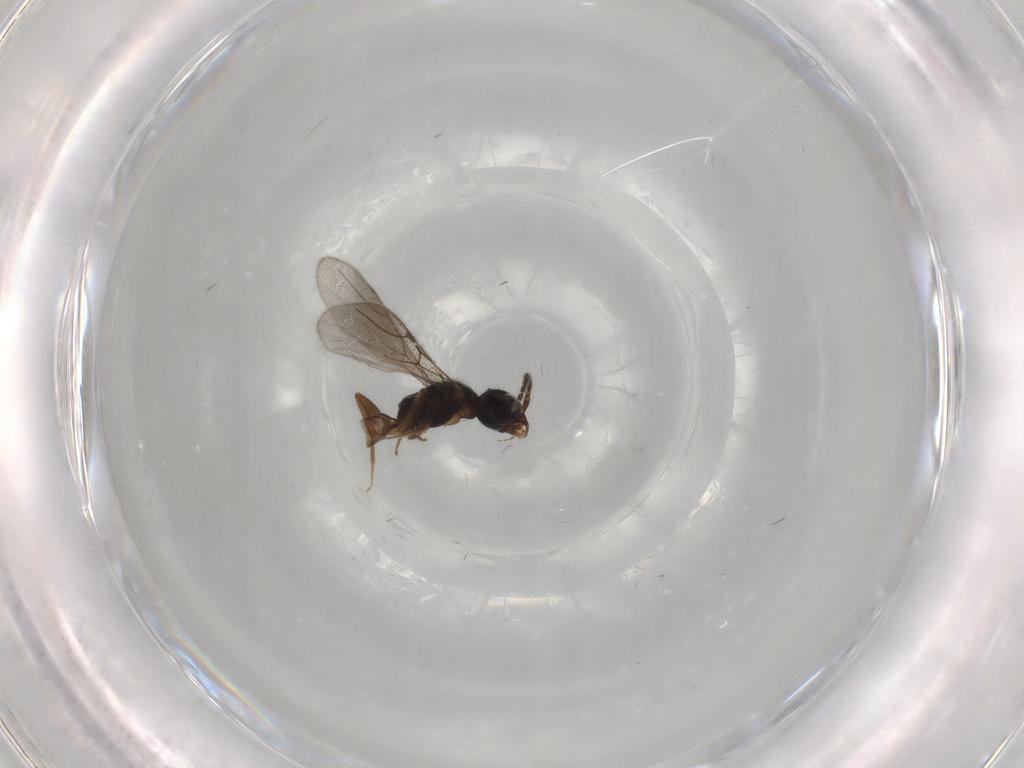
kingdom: Animalia
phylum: Arthropoda
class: Insecta
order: Hymenoptera
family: Bethylidae
